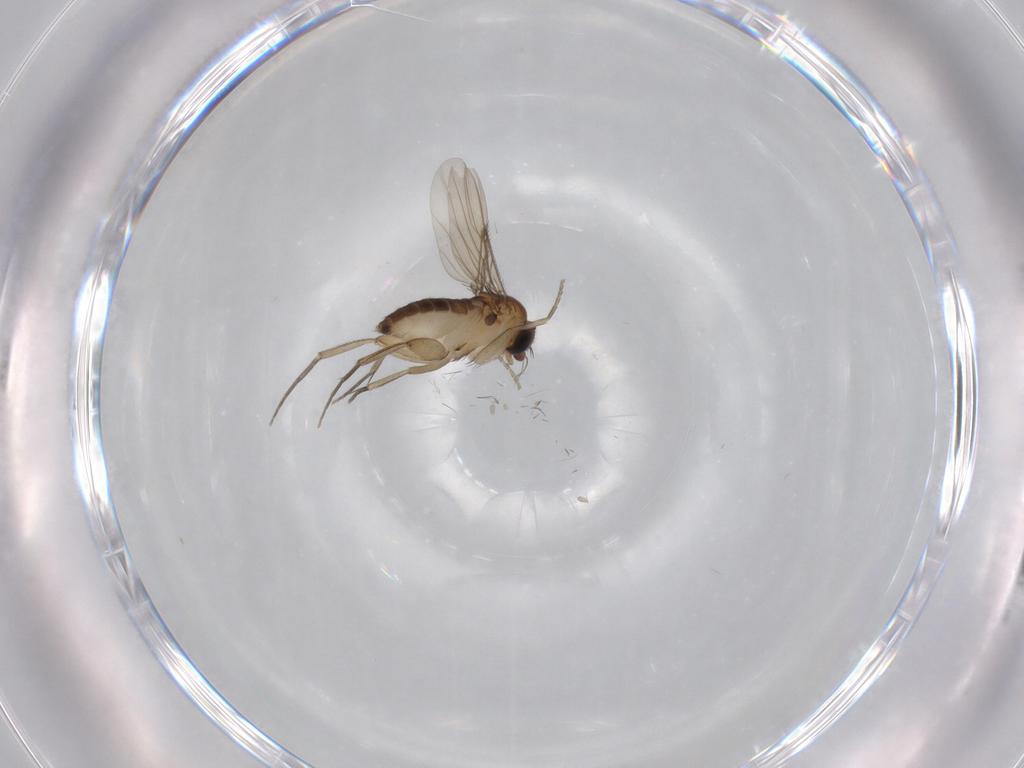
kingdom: Animalia
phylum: Arthropoda
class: Insecta
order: Diptera
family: Phoridae
